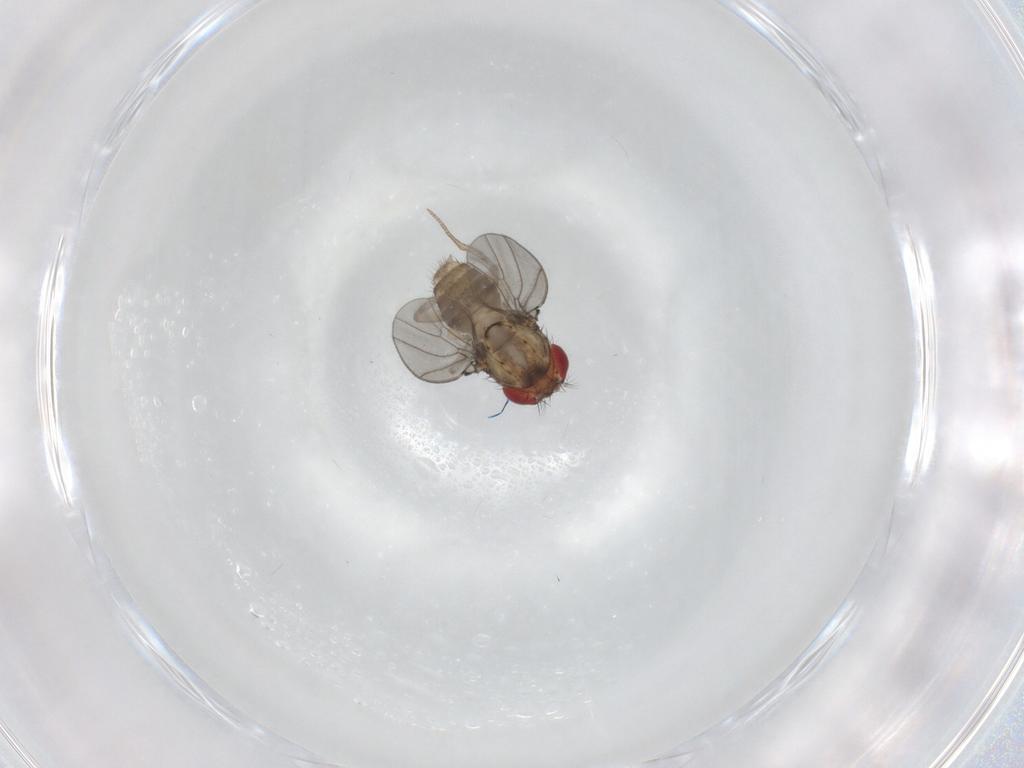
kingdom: Animalia
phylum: Arthropoda
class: Insecta
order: Diptera
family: Drosophilidae
